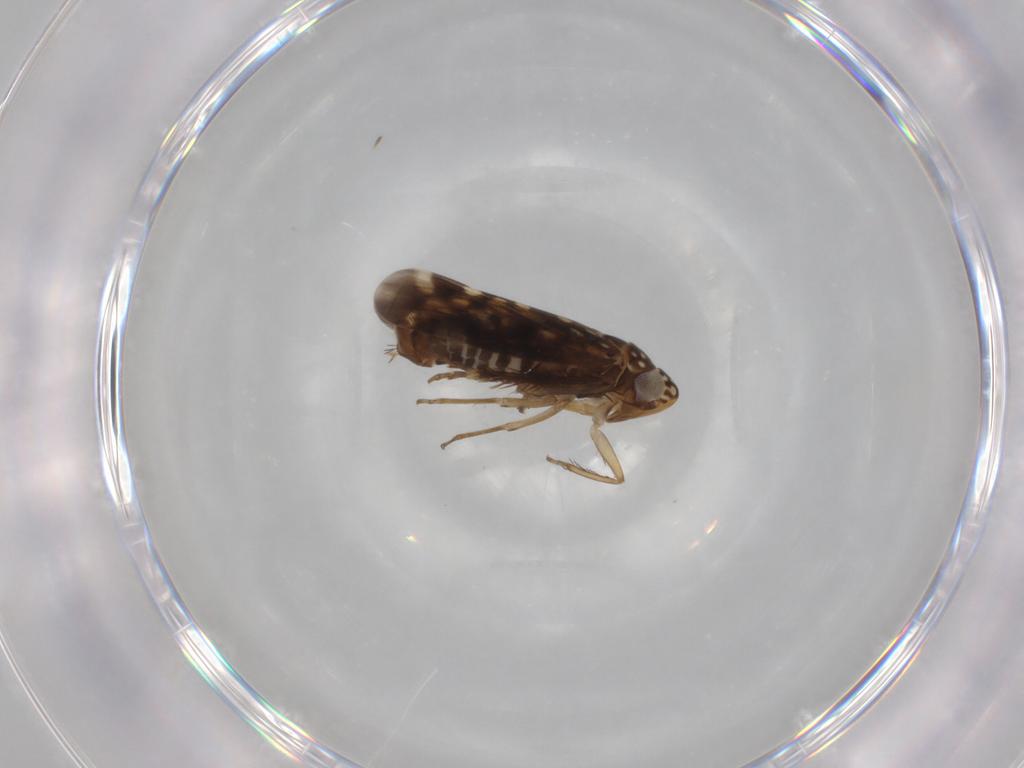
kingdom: Animalia
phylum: Arthropoda
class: Insecta
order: Hemiptera
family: Cicadellidae
